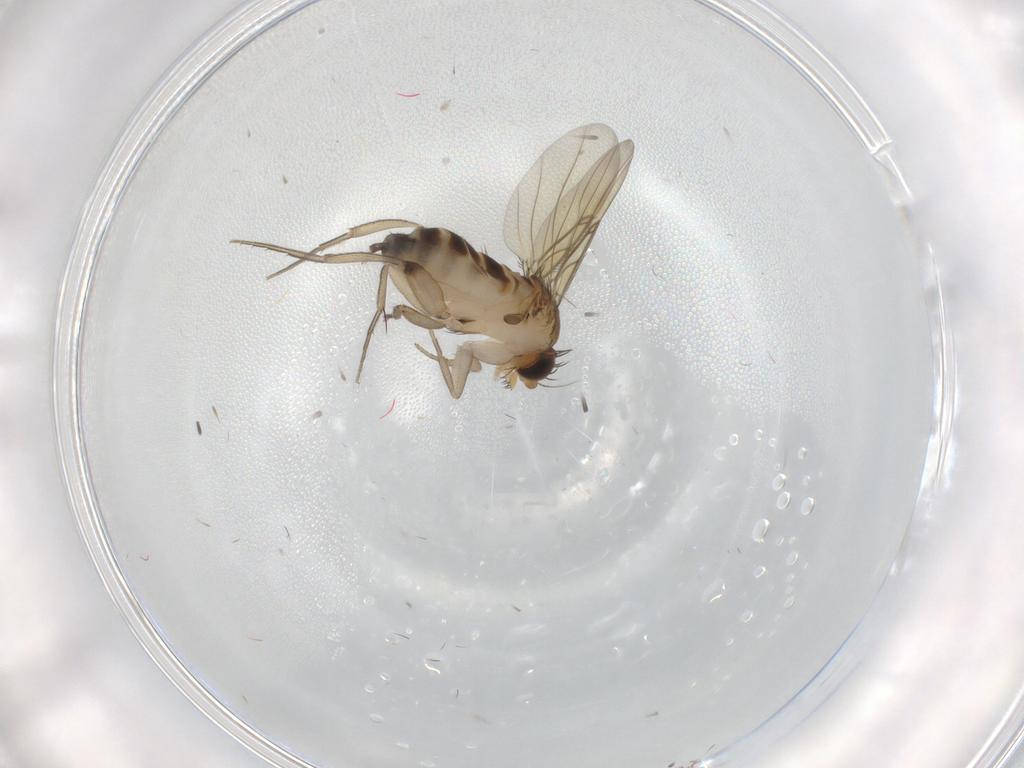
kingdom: Animalia
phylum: Arthropoda
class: Insecta
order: Diptera
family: Phoridae
